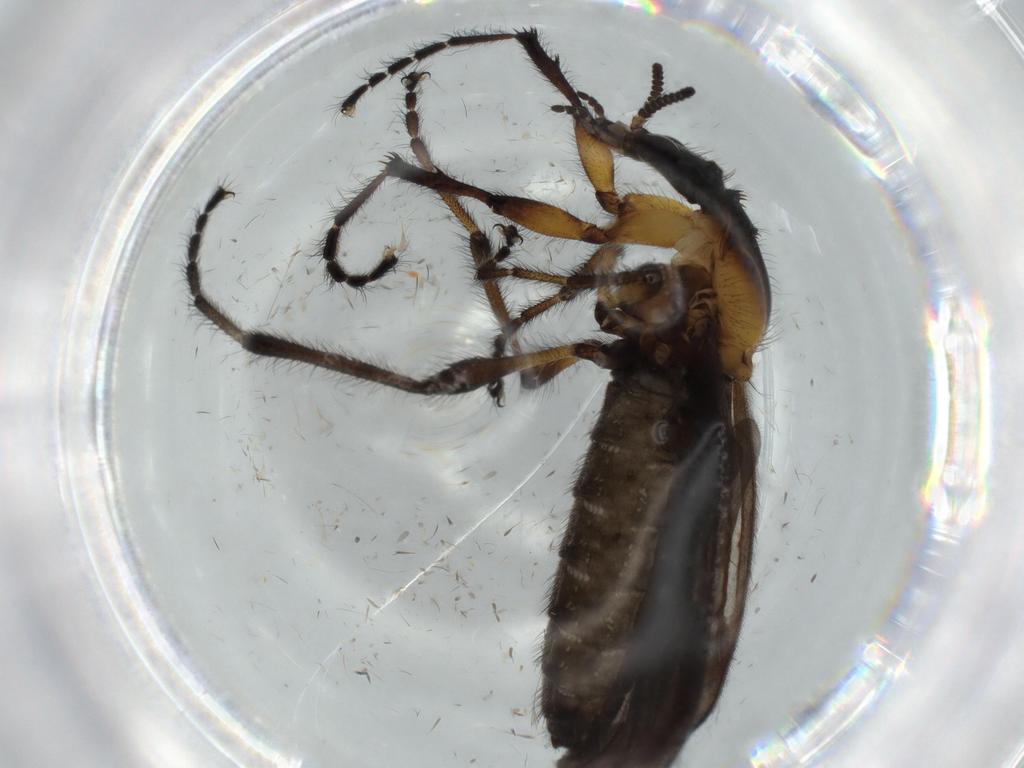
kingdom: Animalia
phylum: Arthropoda
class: Insecta
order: Diptera
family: Bibionidae
